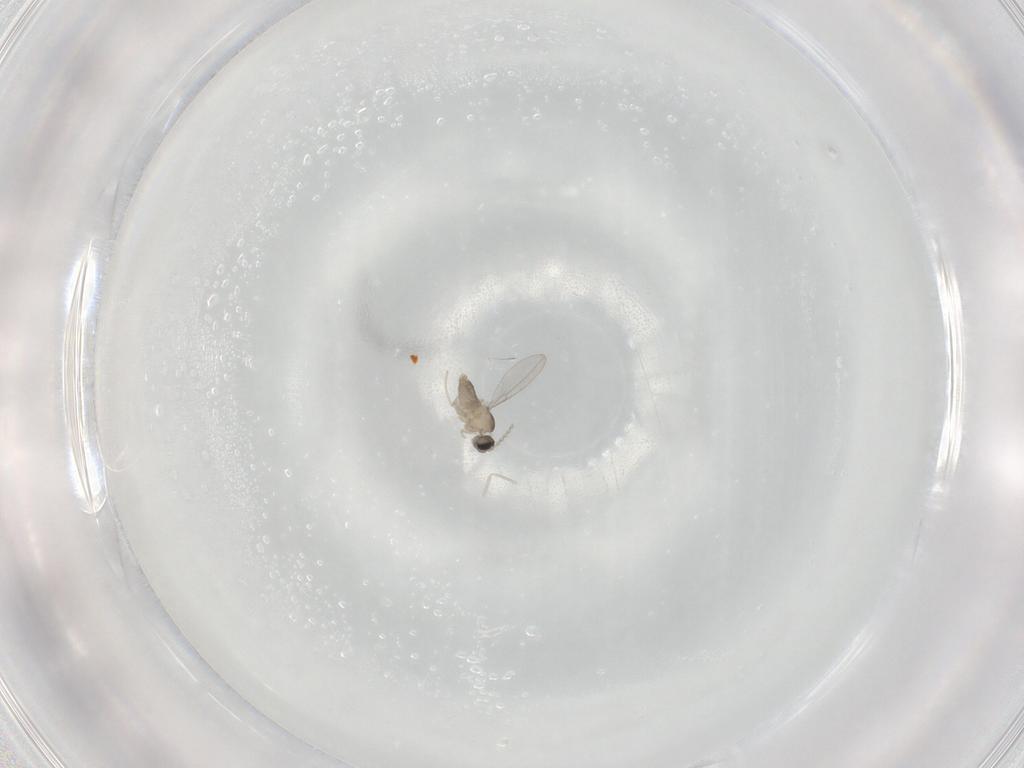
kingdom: Animalia
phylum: Arthropoda
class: Insecta
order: Diptera
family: Cecidomyiidae
